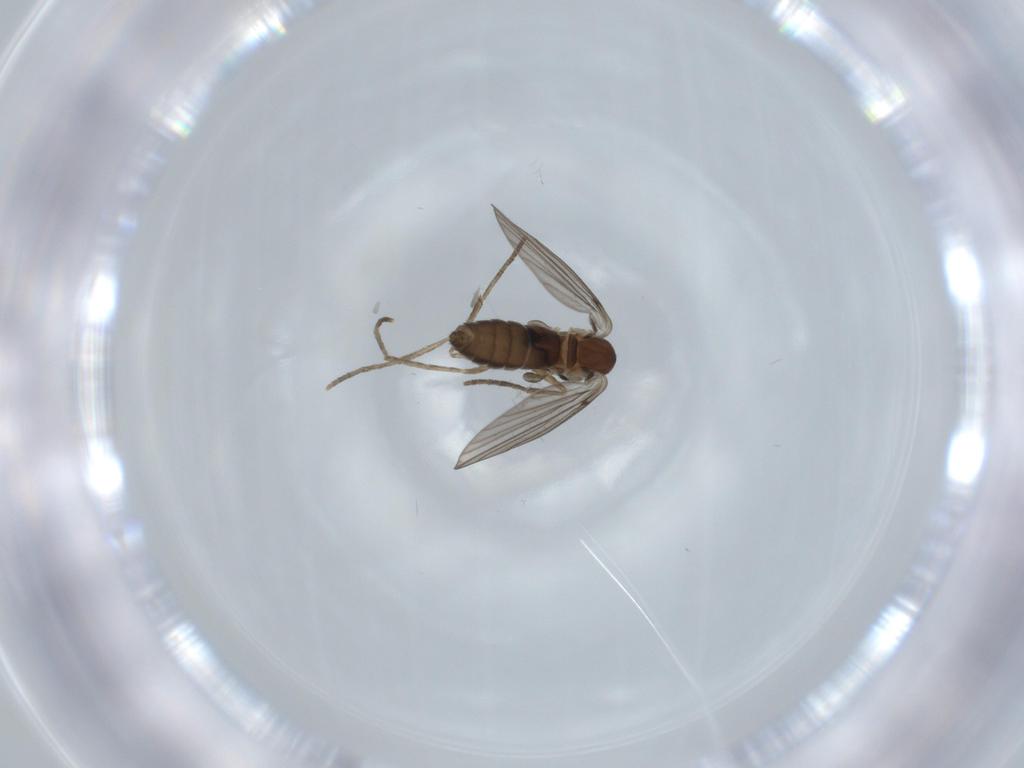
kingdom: Animalia
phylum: Arthropoda
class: Insecta
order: Diptera
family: Psychodidae
